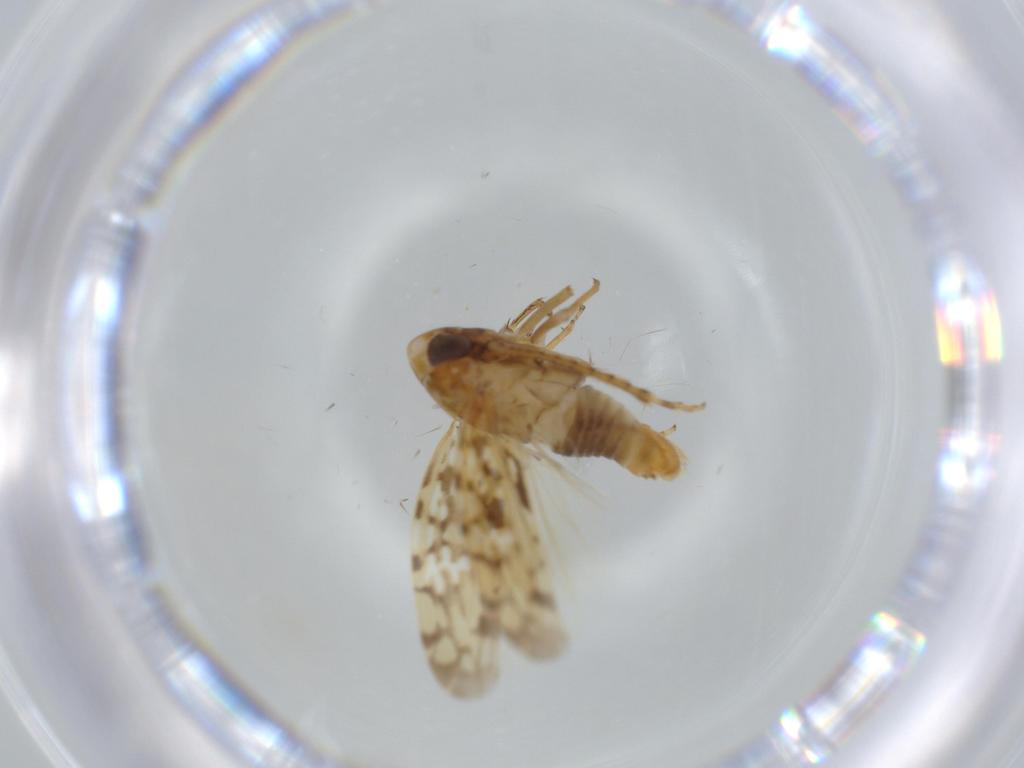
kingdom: Animalia
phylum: Arthropoda
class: Insecta
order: Hemiptera
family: Cicadellidae
